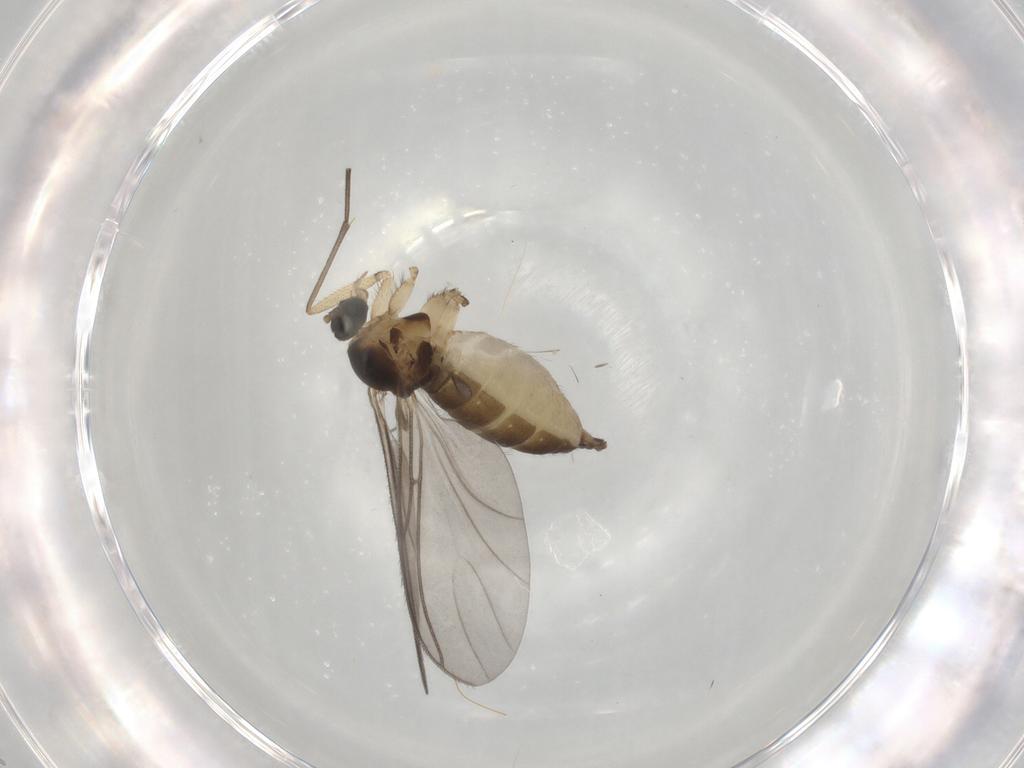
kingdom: Animalia
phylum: Arthropoda
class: Insecta
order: Diptera
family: Sciaridae
